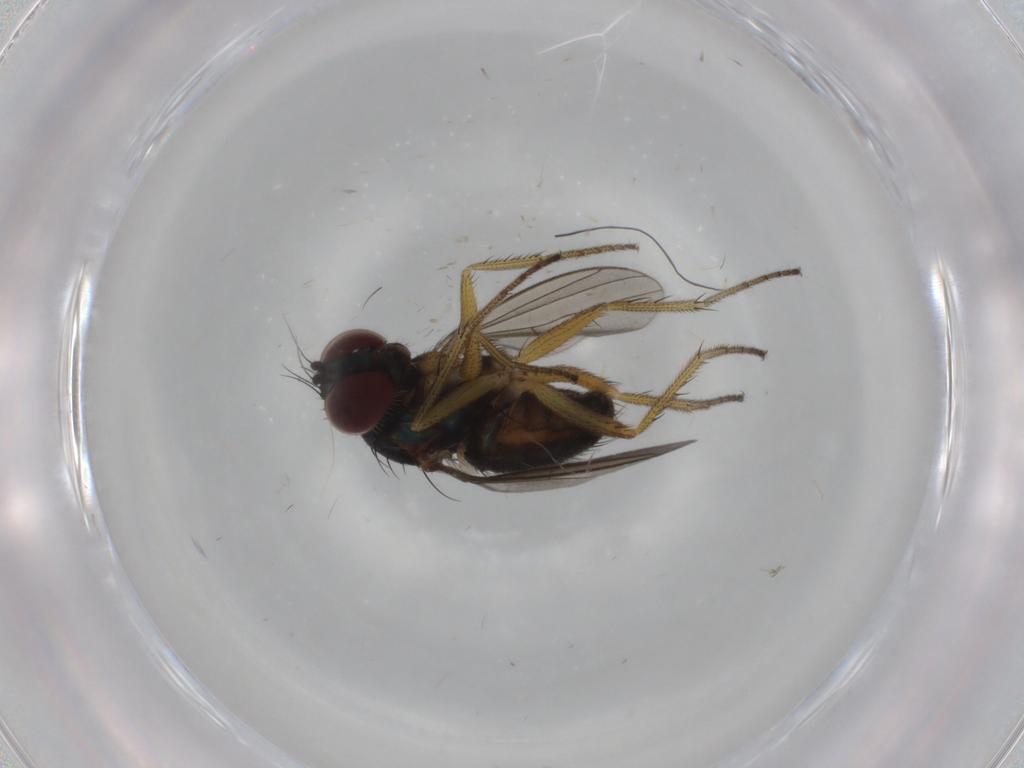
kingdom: Animalia
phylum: Arthropoda
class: Insecta
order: Diptera
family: Dolichopodidae
